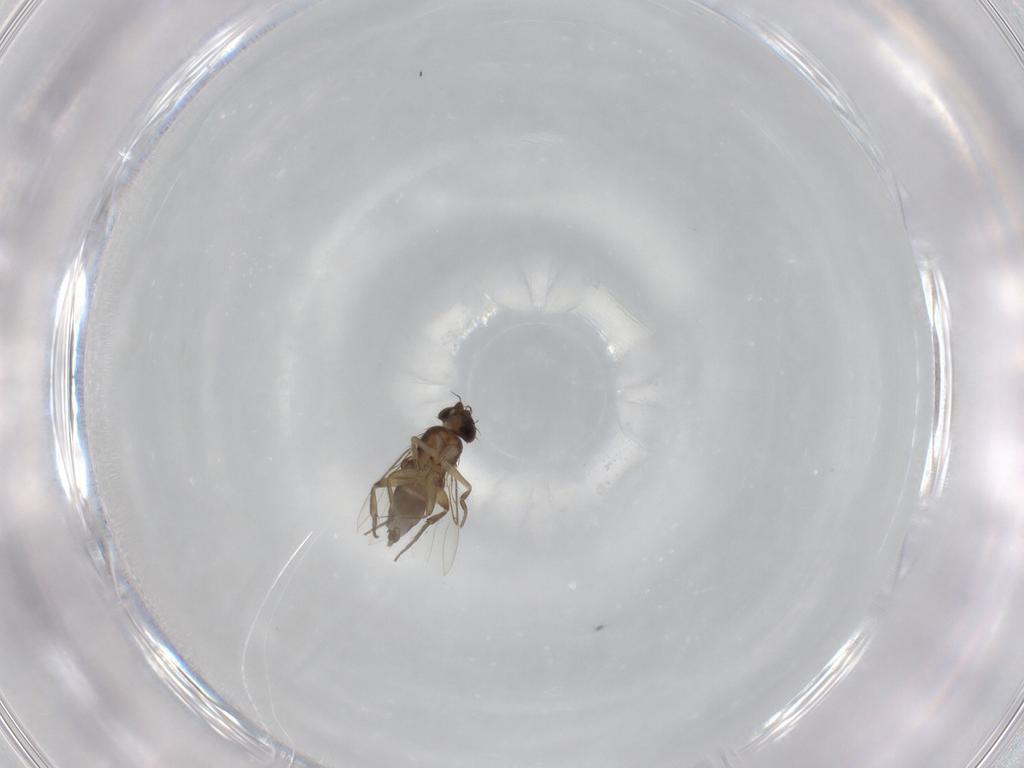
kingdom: Animalia
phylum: Arthropoda
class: Insecta
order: Diptera
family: Phoridae
